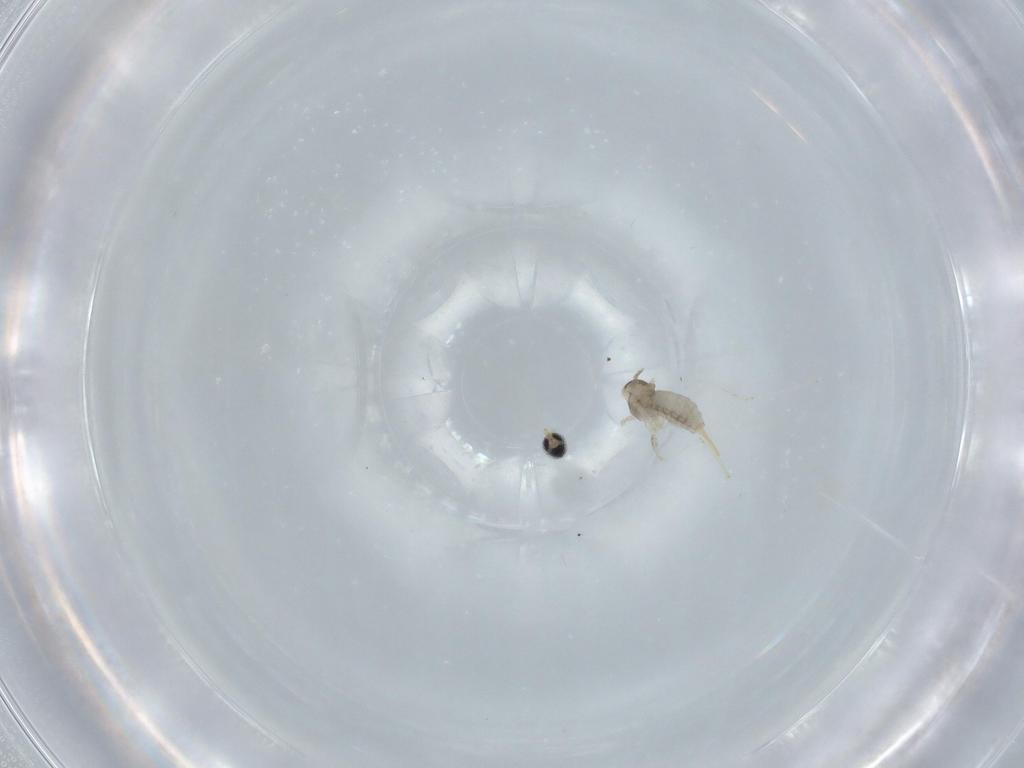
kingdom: Animalia
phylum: Arthropoda
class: Insecta
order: Diptera
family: Cecidomyiidae
